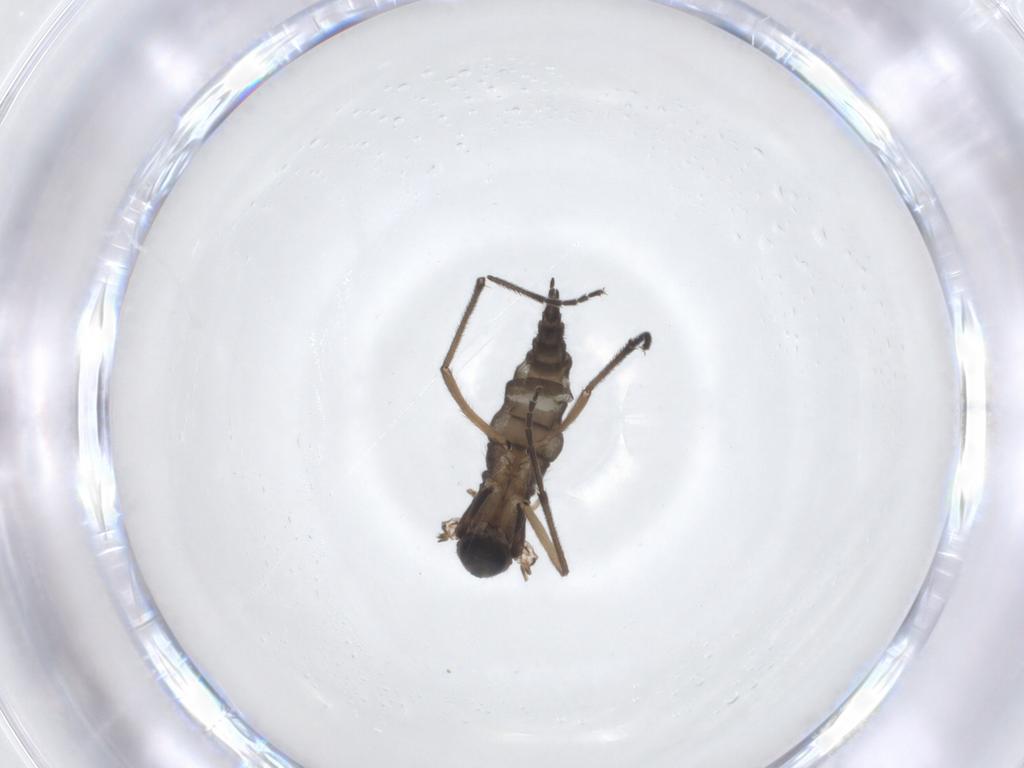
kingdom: Animalia
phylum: Arthropoda
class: Insecta
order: Diptera
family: Sciaridae
